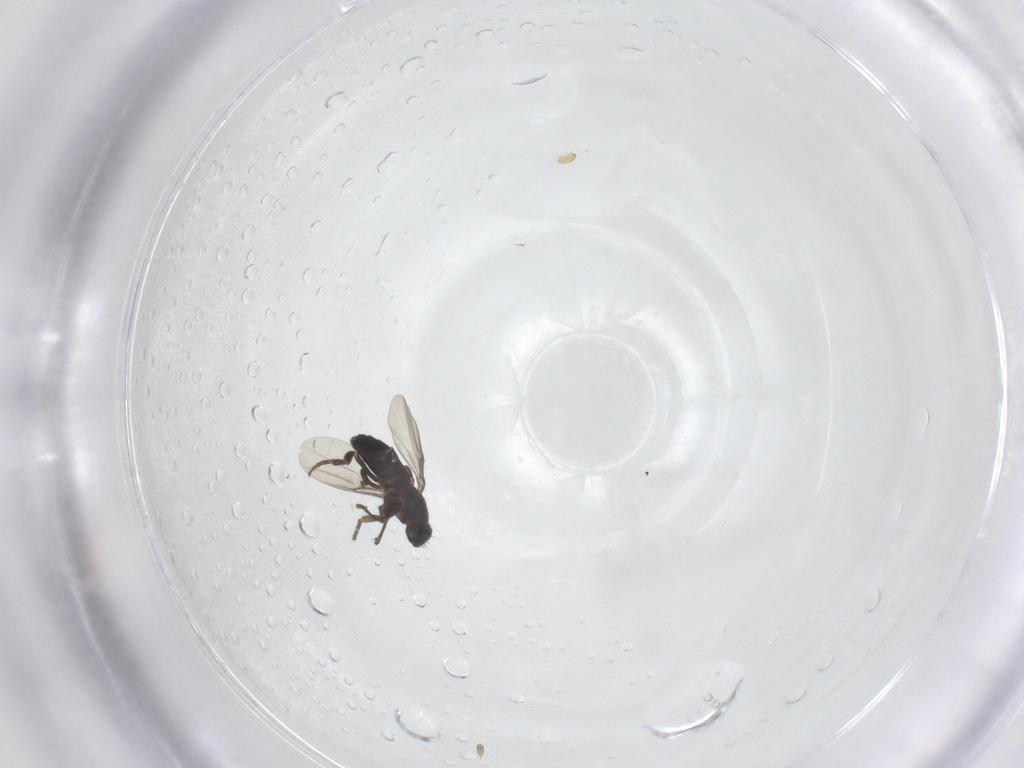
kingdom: Animalia
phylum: Arthropoda
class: Insecta
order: Diptera
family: Phoridae
